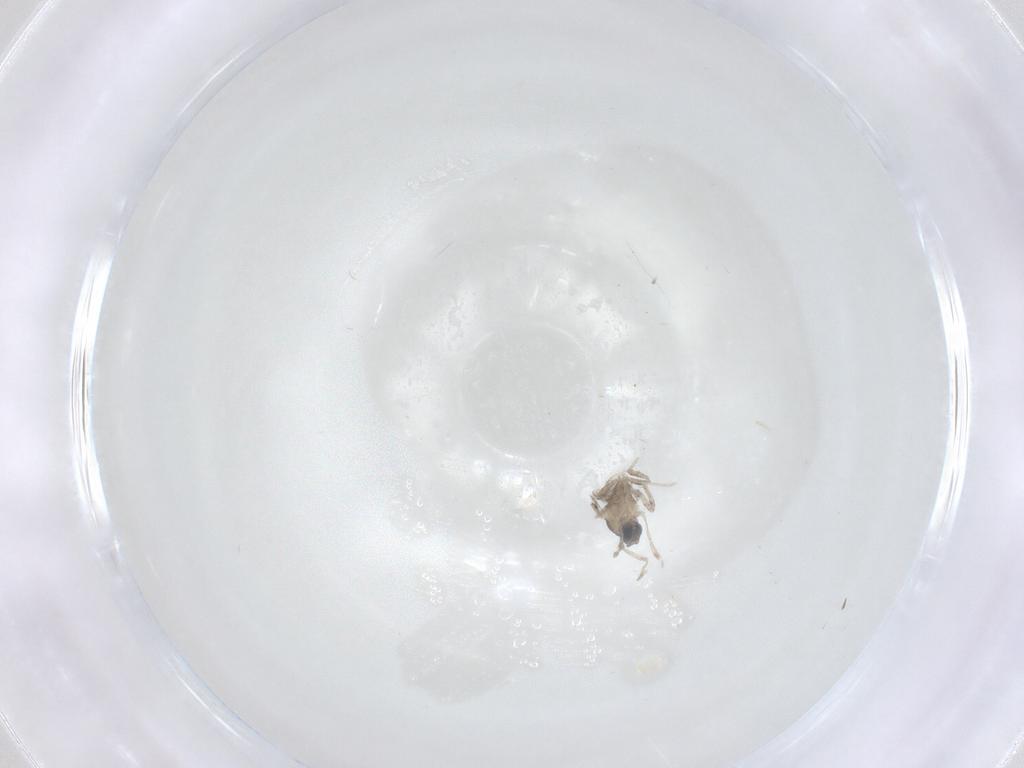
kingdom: Animalia
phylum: Arthropoda
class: Insecta
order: Diptera
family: Cecidomyiidae
